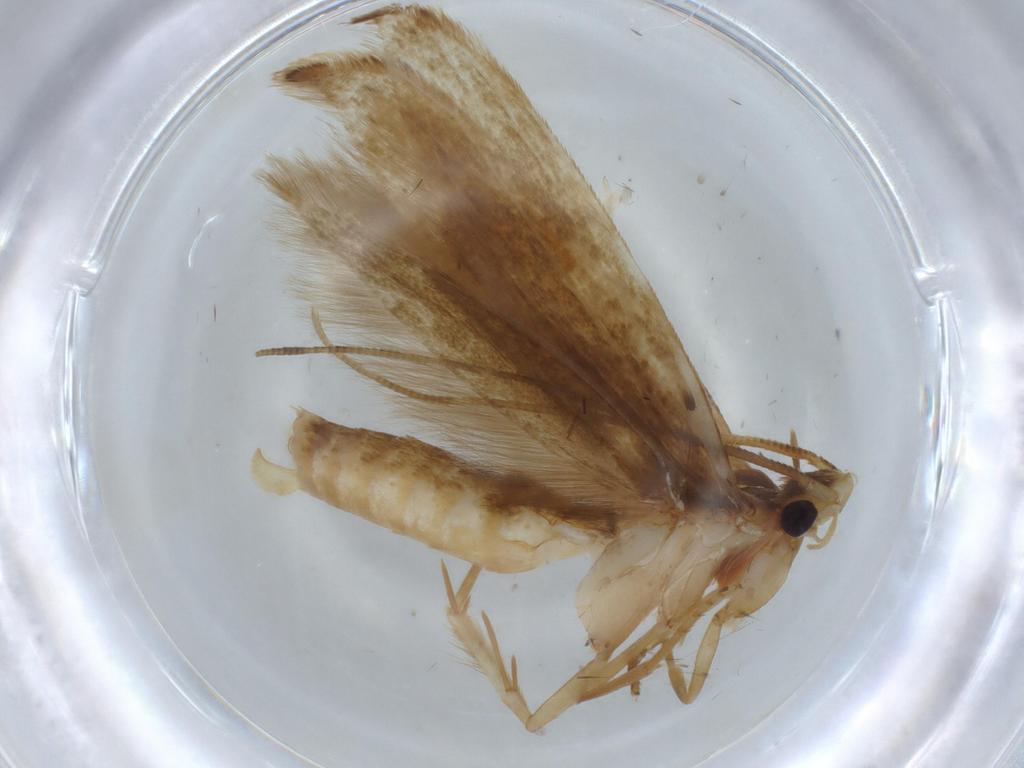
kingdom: Animalia
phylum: Arthropoda
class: Insecta
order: Lepidoptera
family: Tineidae
